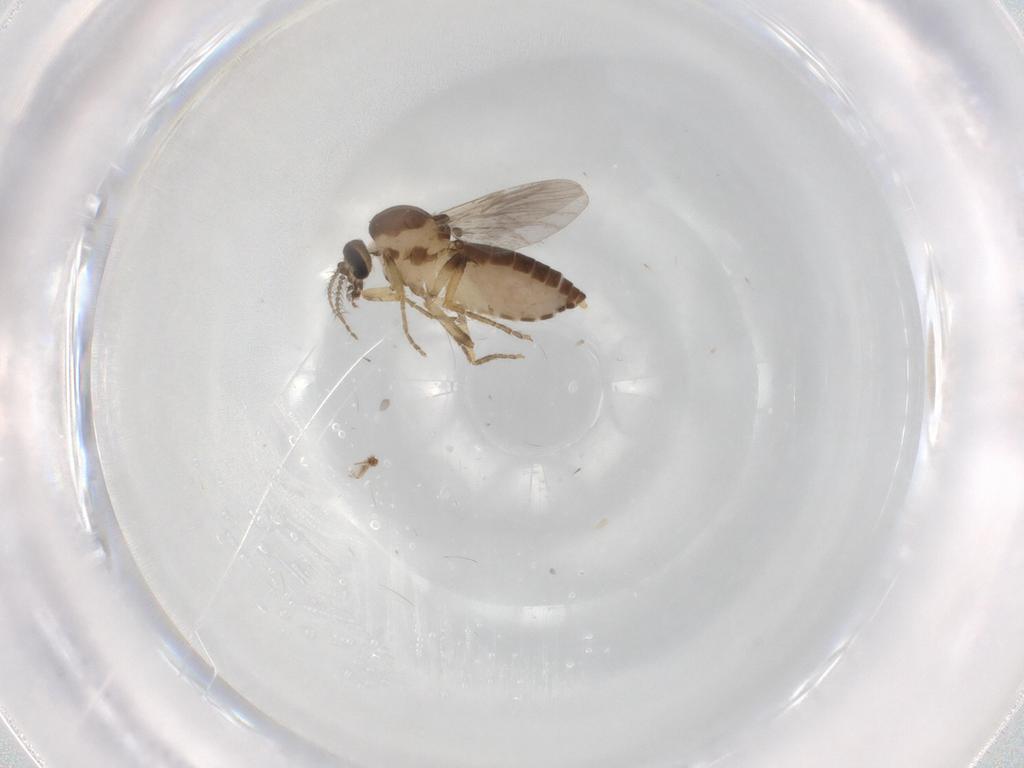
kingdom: Animalia
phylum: Arthropoda
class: Insecta
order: Diptera
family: Ceratopogonidae
